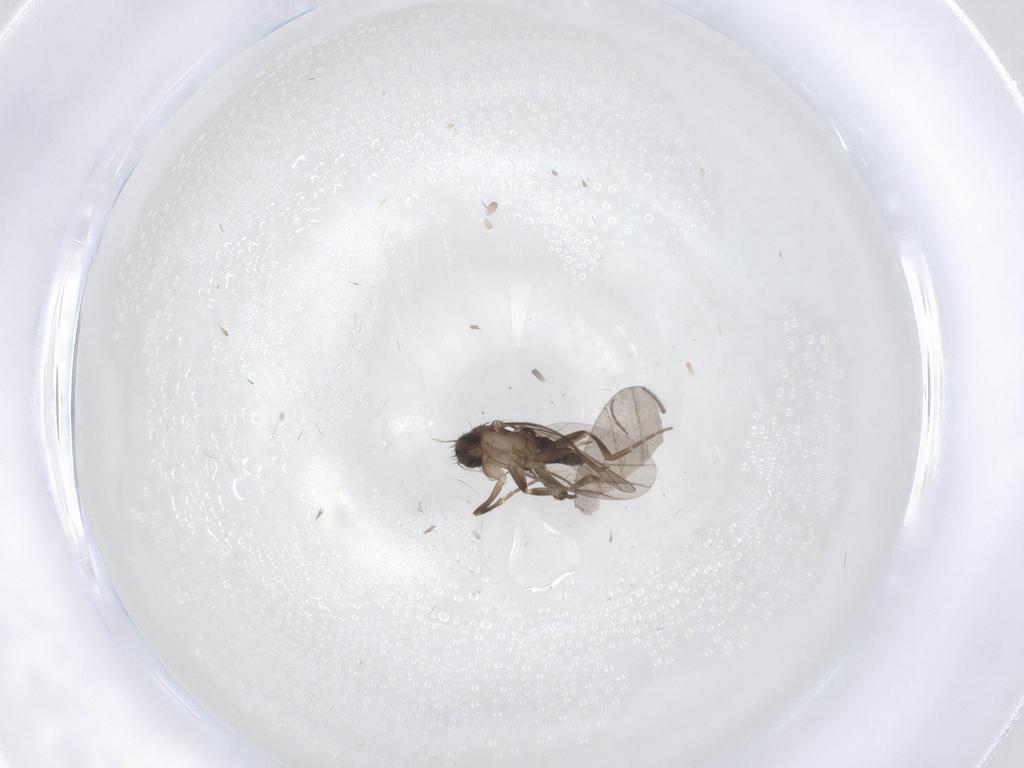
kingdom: Animalia
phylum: Arthropoda
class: Insecta
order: Diptera
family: Phoridae
